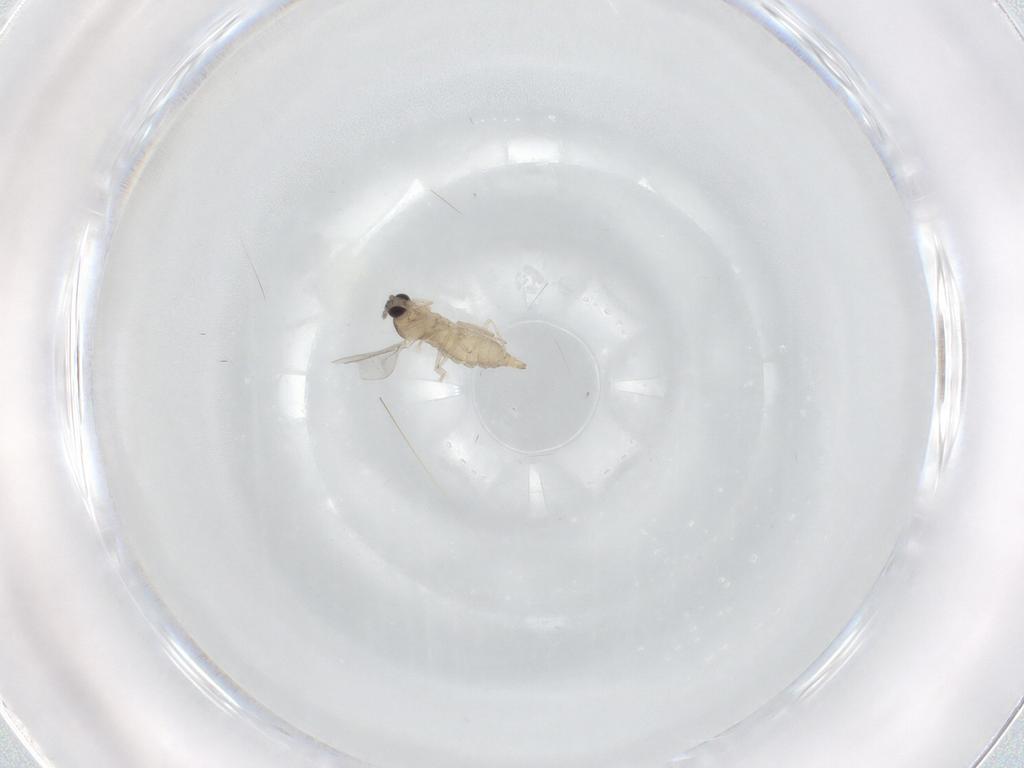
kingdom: Animalia
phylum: Arthropoda
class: Insecta
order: Diptera
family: Cecidomyiidae
